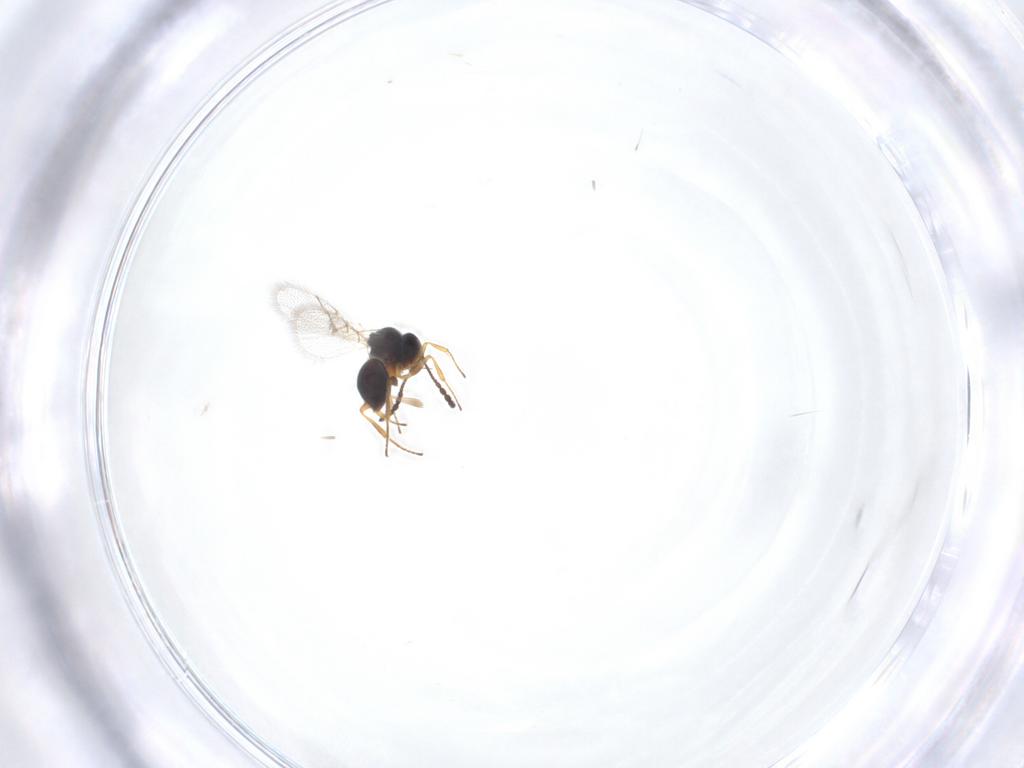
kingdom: Animalia
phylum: Arthropoda
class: Insecta
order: Hymenoptera
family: Figitidae
